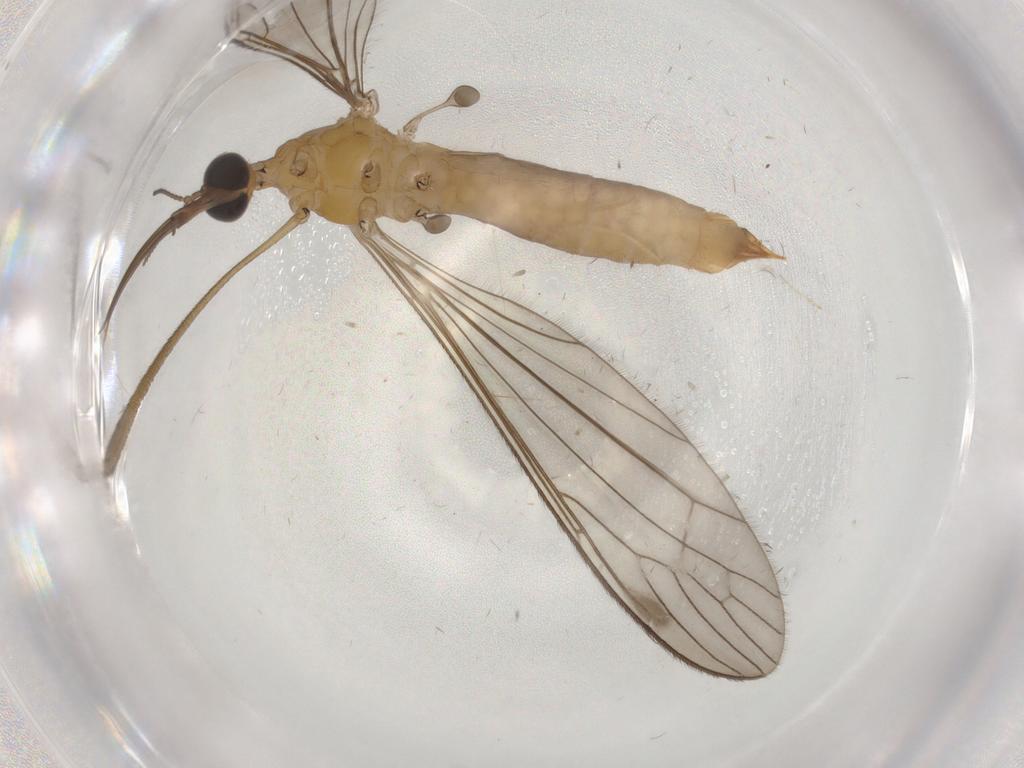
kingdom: Animalia
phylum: Arthropoda
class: Insecta
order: Diptera
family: Limoniidae
